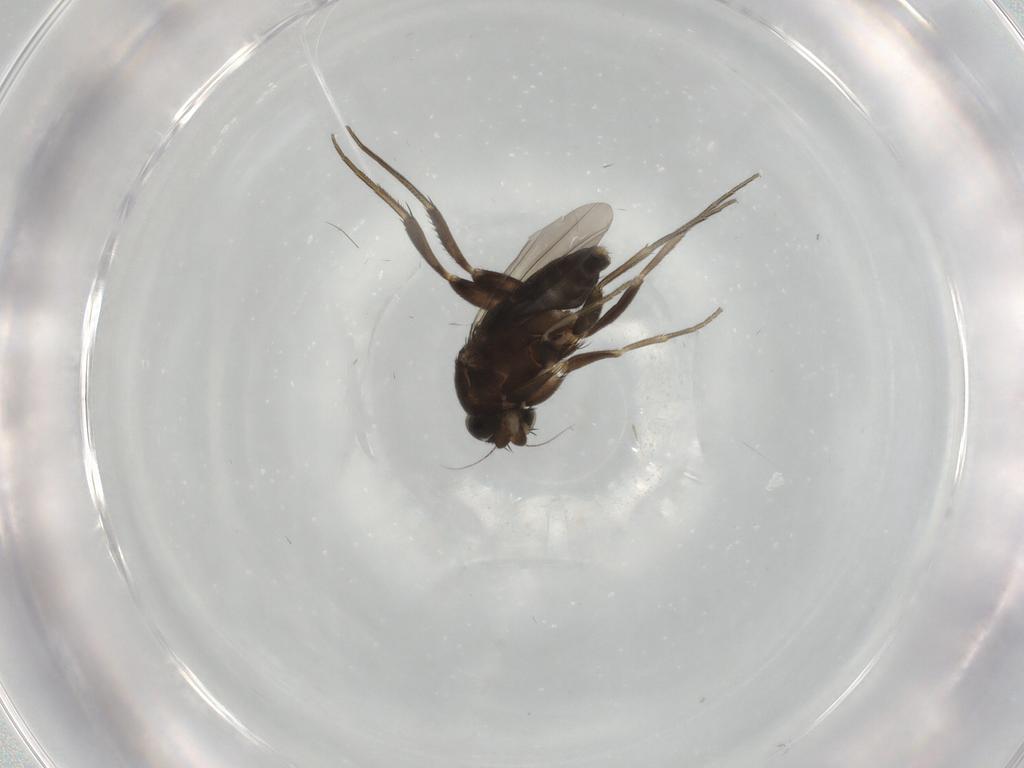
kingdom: Animalia
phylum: Arthropoda
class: Insecta
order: Diptera
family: Phoridae
